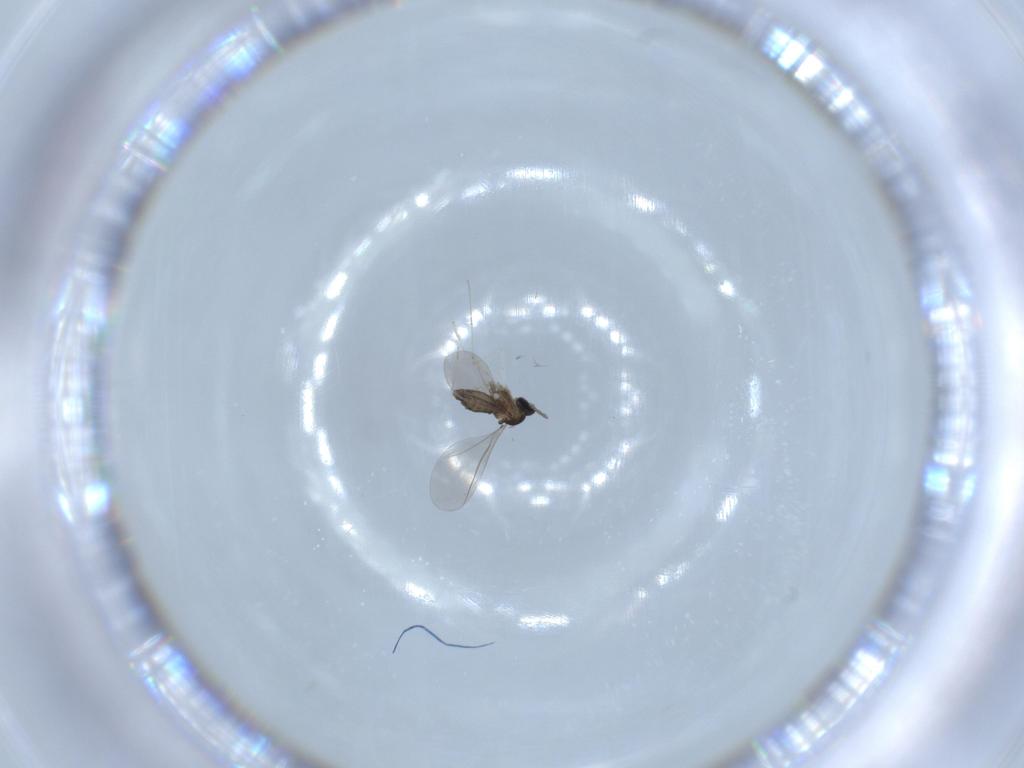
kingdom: Animalia
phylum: Arthropoda
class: Insecta
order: Diptera
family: Cecidomyiidae
